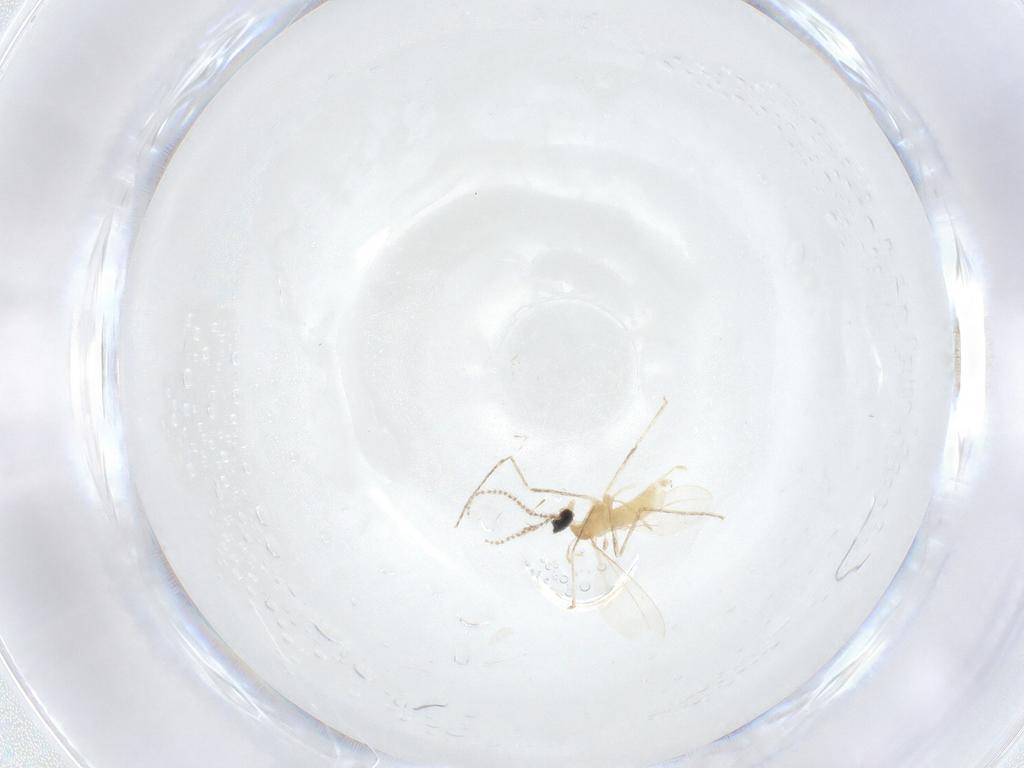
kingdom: Animalia
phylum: Arthropoda
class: Insecta
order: Diptera
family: Cecidomyiidae
